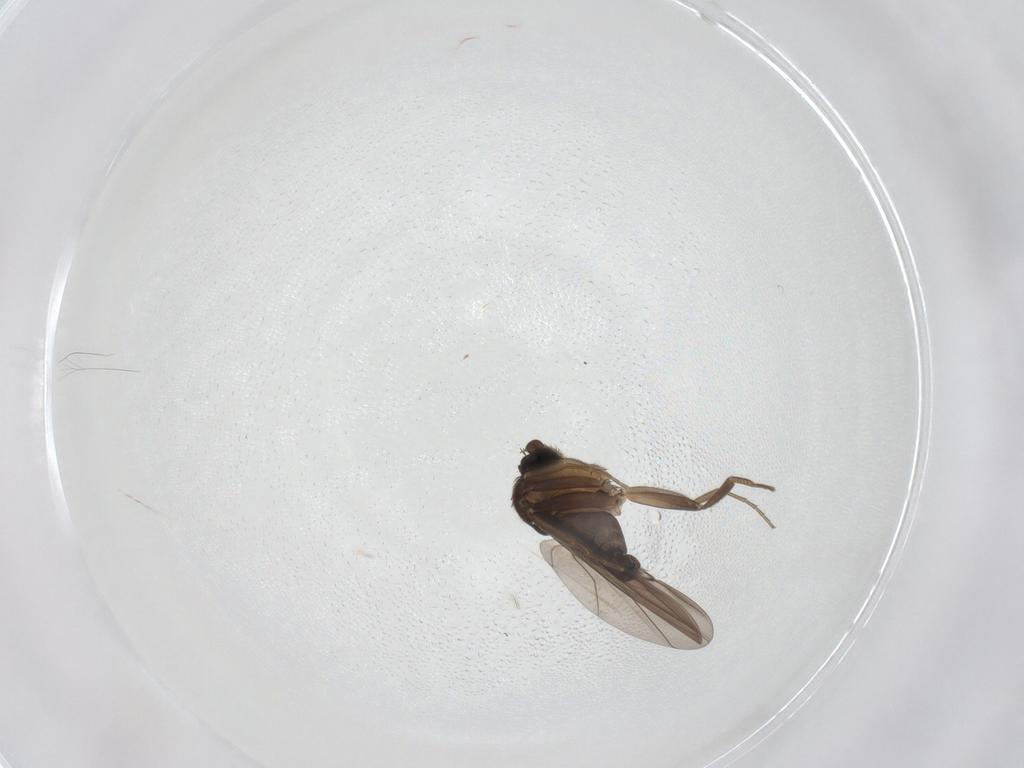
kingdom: Animalia
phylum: Arthropoda
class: Insecta
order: Diptera
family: Phoridae
